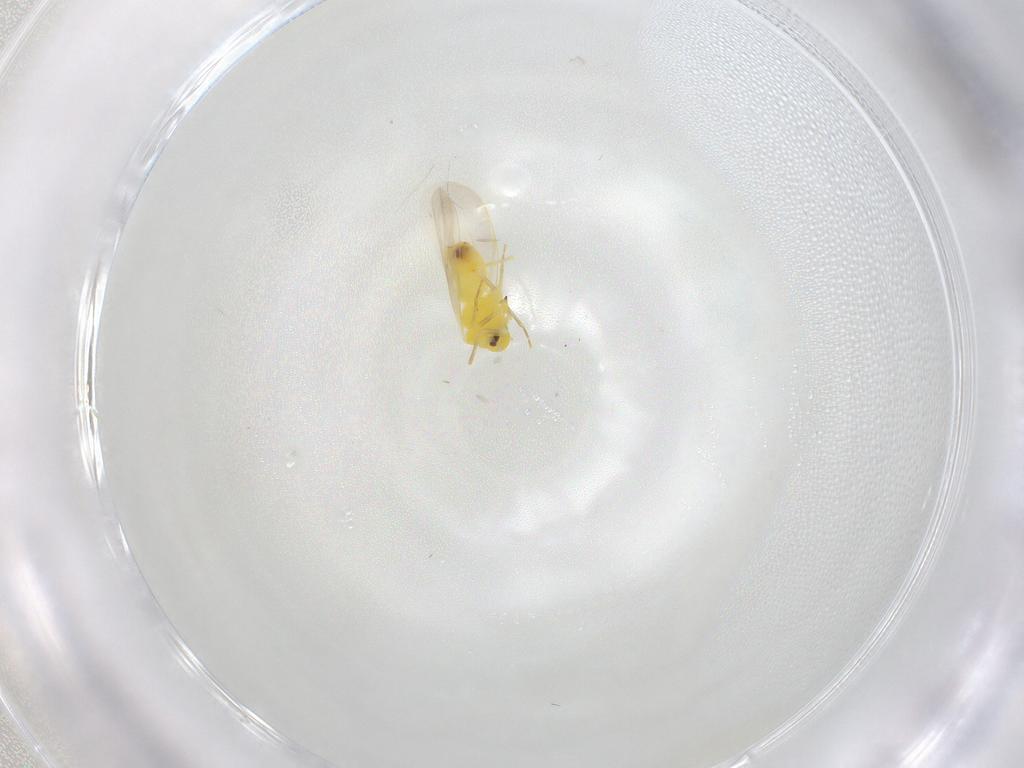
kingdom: Animalia
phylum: Arthropoda
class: Insecta
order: Hemiptera
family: Aleyrodidae
